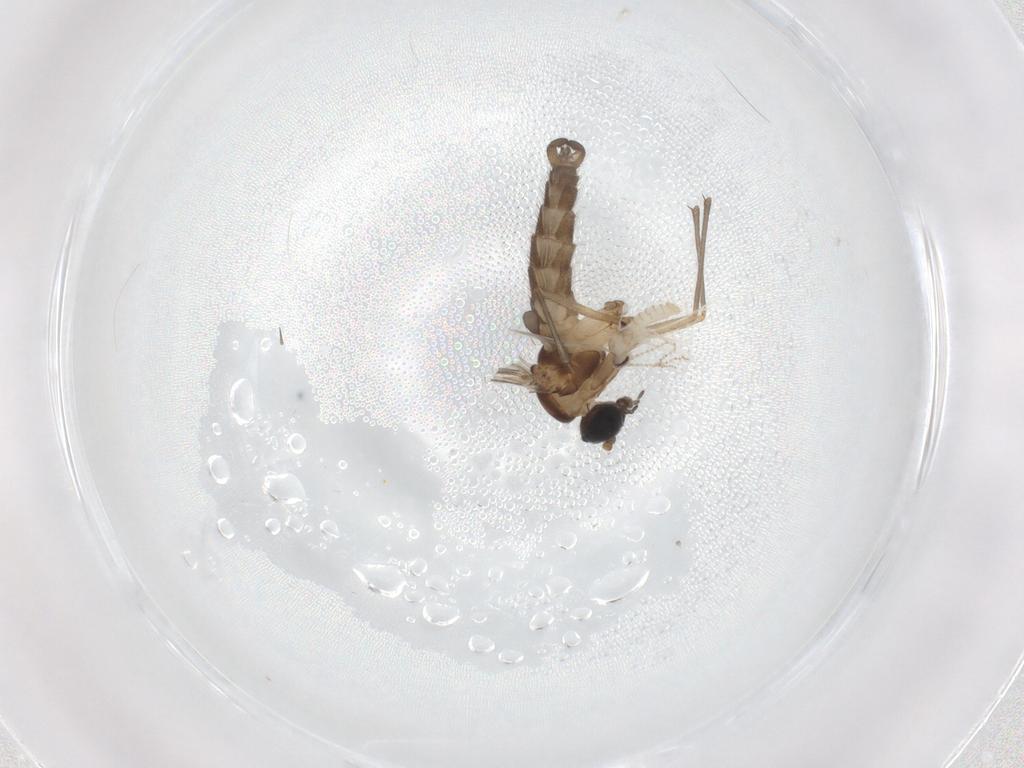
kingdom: Animalia
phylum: Arthropoda
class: Insecta
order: Diptera
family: Sciaridae
